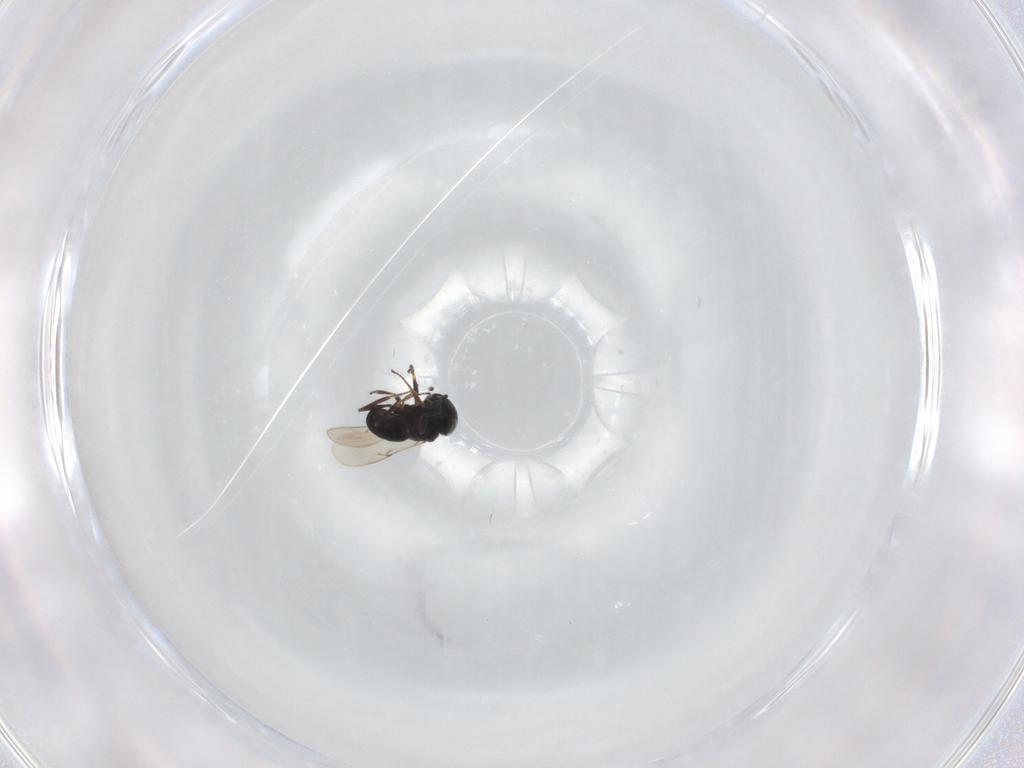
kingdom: Animalia
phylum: Arthropoda
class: Insecta
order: Hymenoptera
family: Scelionidae
